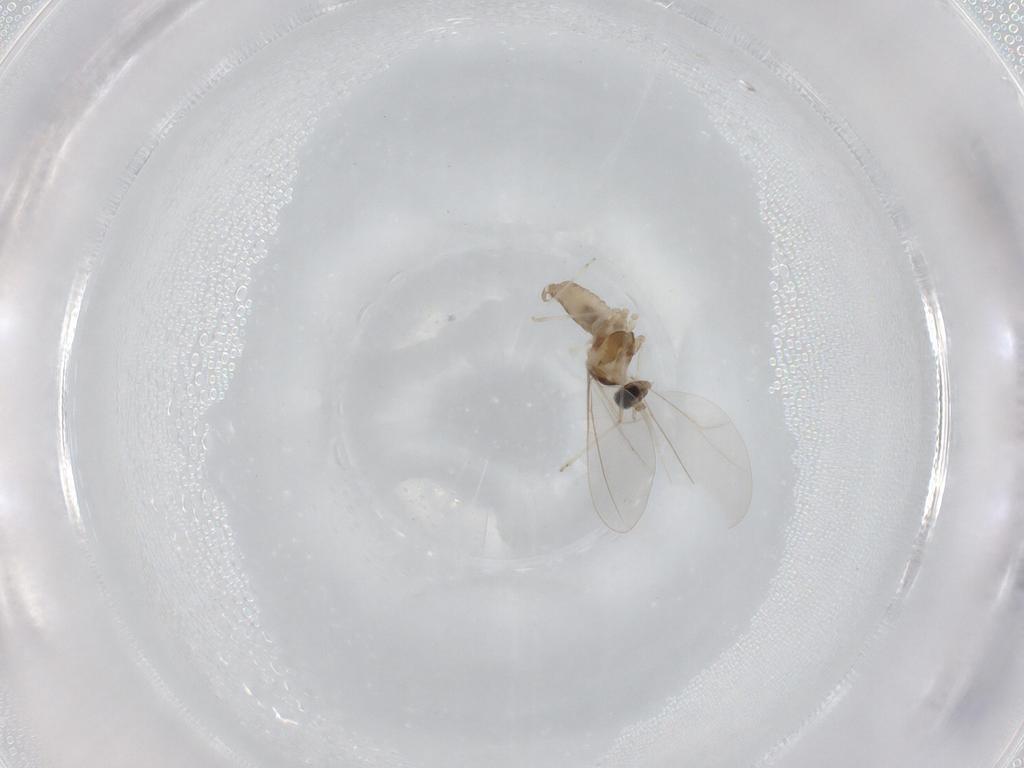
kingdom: Animalia
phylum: Arthropoda
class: Insecta
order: Diptera
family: Cecidomyiidae
